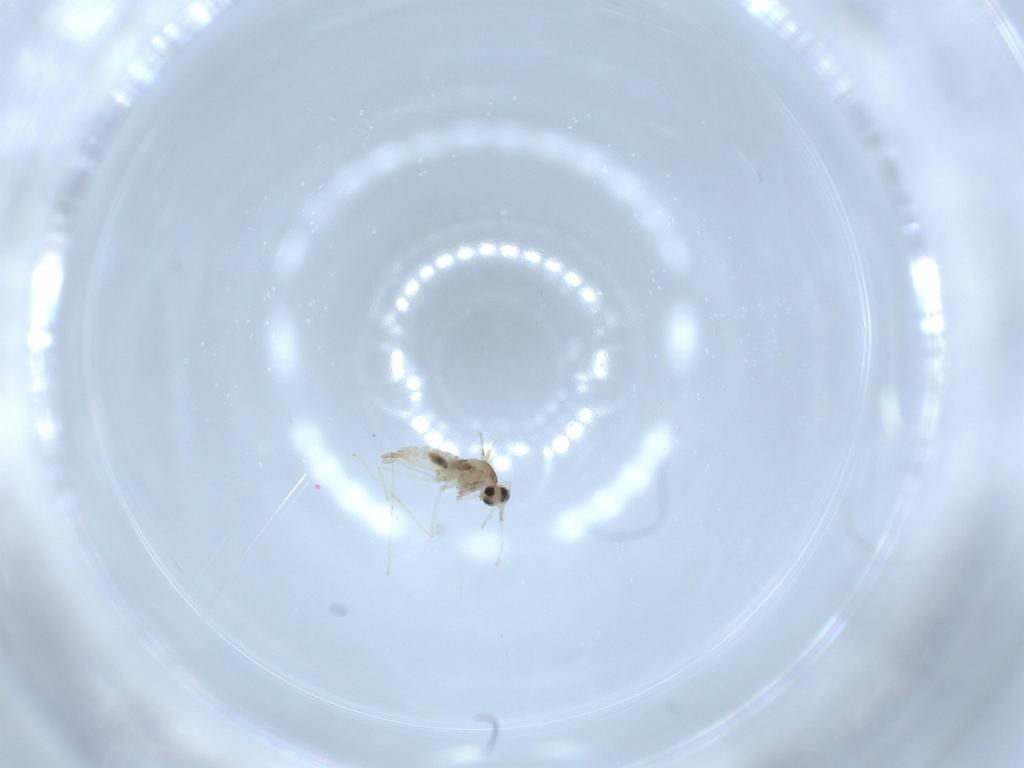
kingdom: Animalia
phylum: Arthropoda
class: Insecta
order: Diptera
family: Cecidomyiidae
